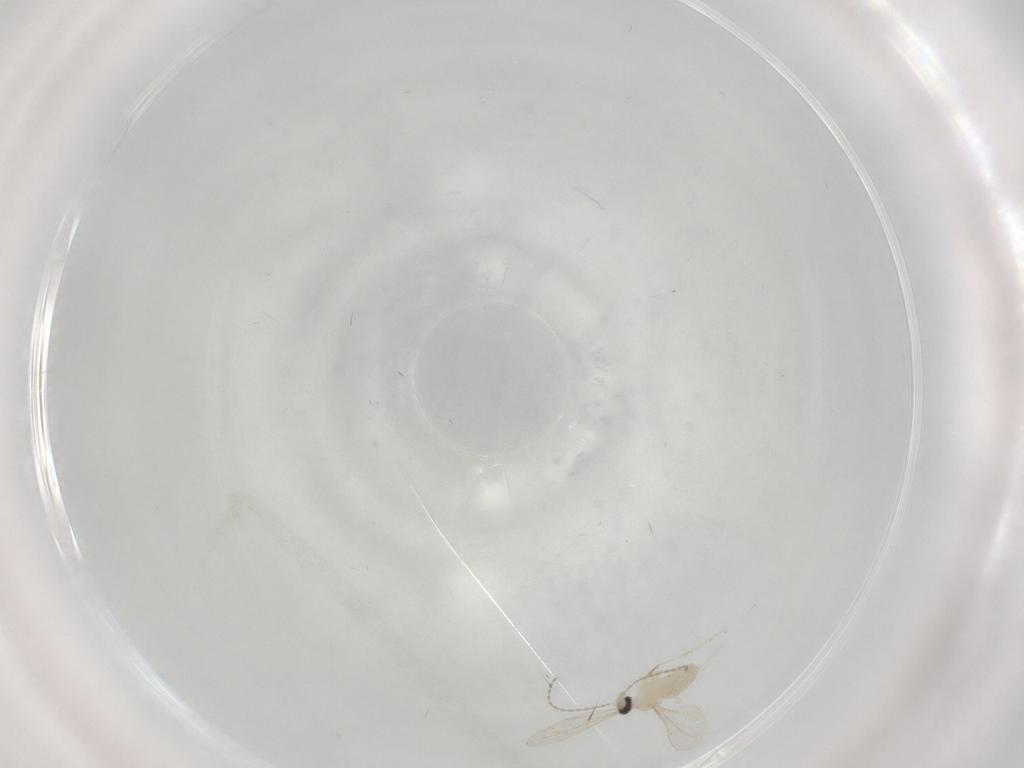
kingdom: Animalia
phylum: Arthropoda
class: Insecta
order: Diptera
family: Cecidomyiidae
